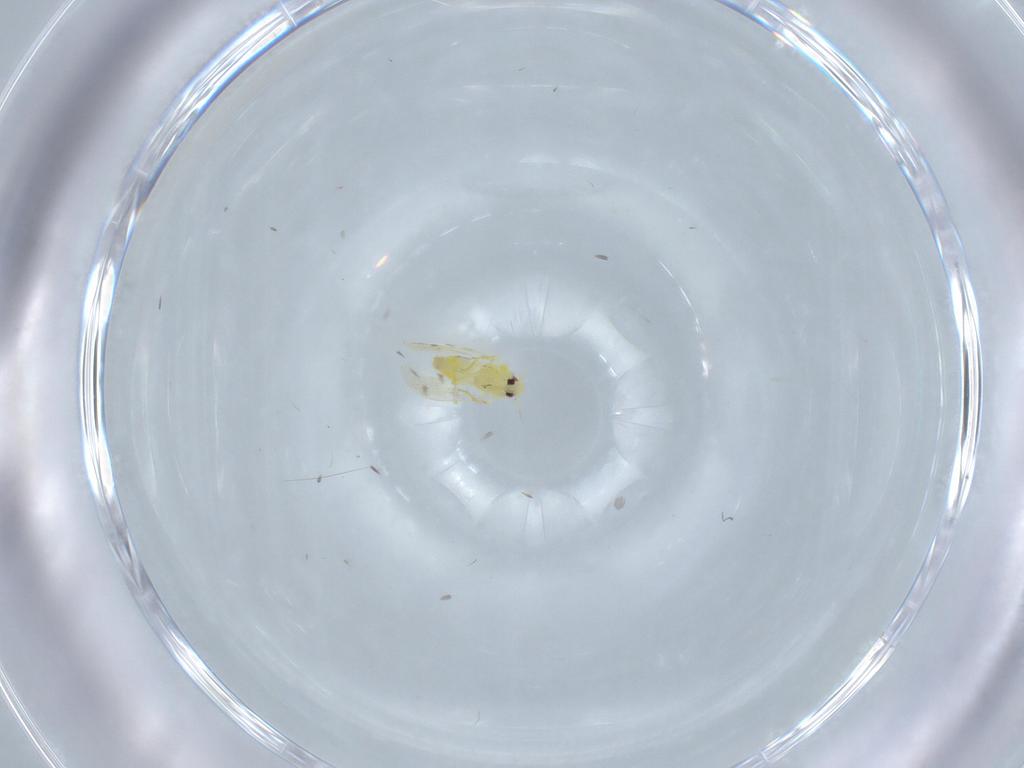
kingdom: Animalia
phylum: Arthropoda
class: Insecta
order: Hemiptera
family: Aleyrodidae
